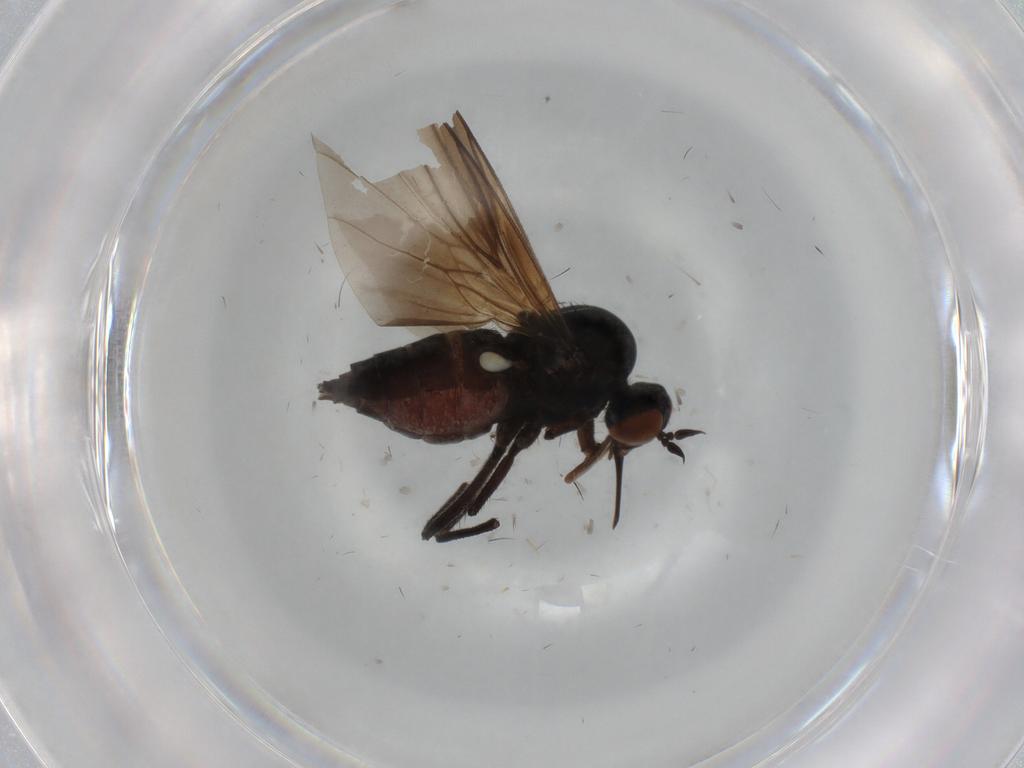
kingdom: Animalia
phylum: Arthropoda
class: Insecta
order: Diptera
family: Empididae
